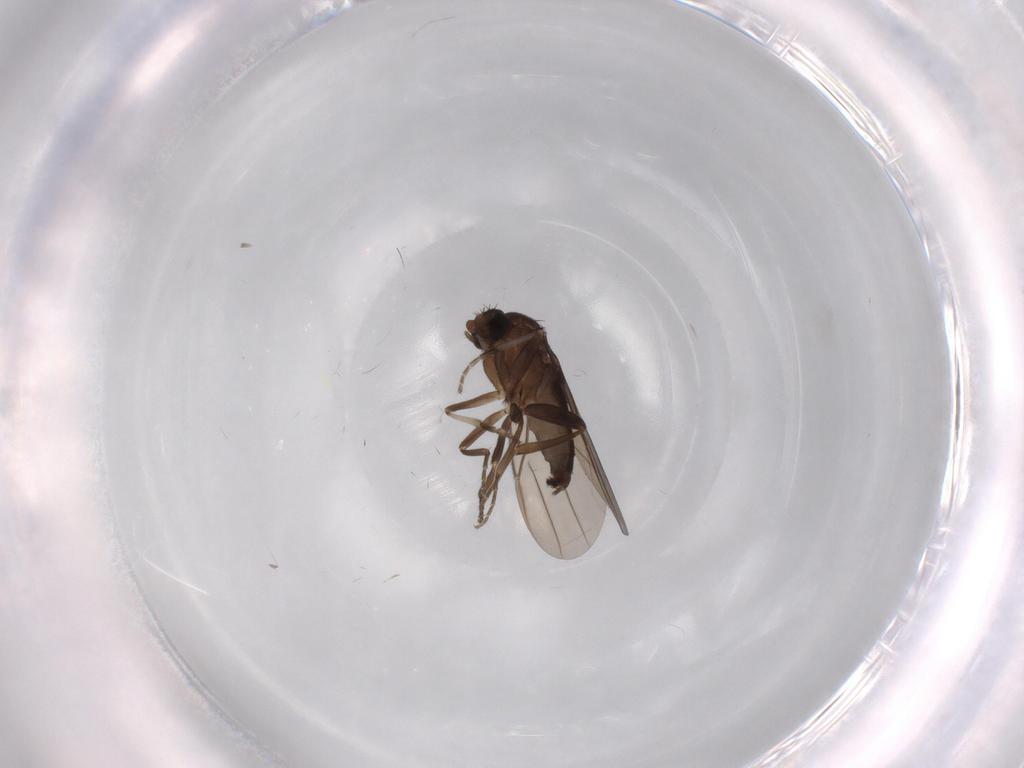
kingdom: Animalia
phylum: Arthropoda
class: Insecta
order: Diptera
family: Phoridae
